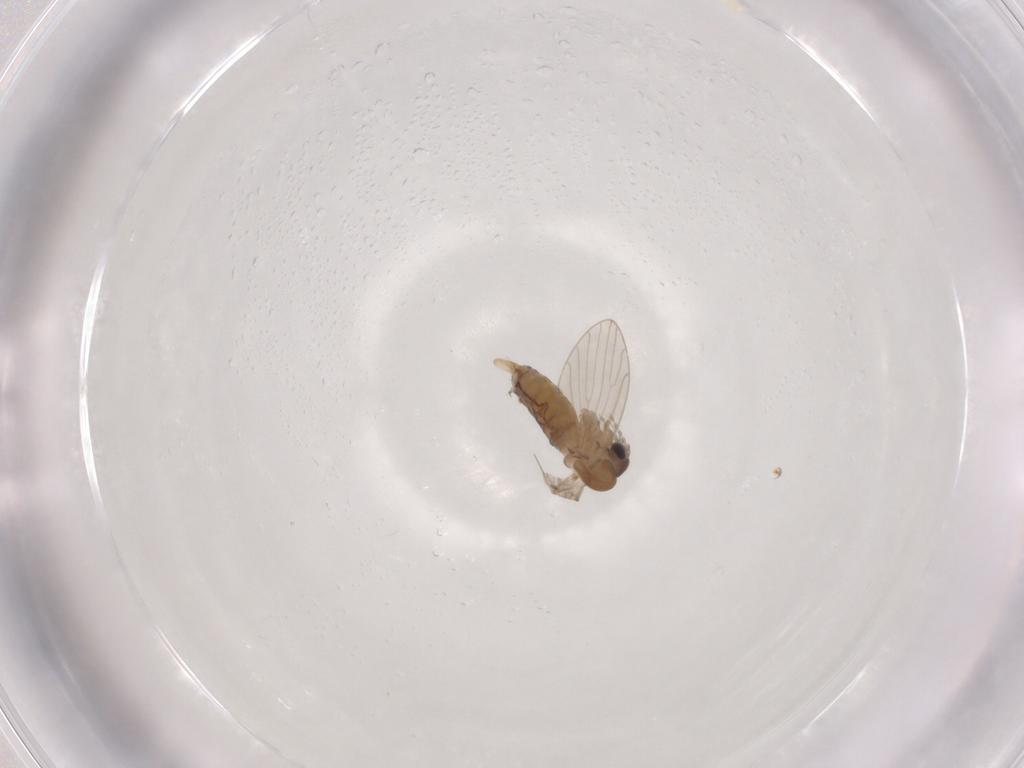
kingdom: Animalia
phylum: Arthropoda
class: Insecta
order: Diptera
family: Psychodidae
